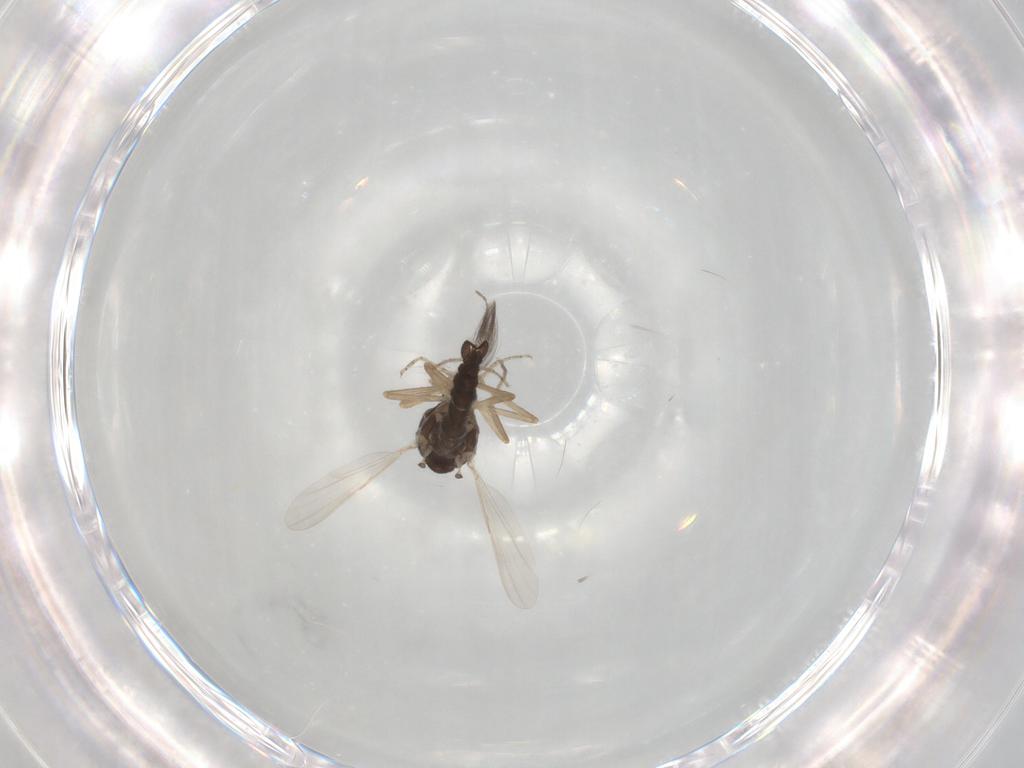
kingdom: Animalia
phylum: Arthropoda
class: Insecta
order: Diptera
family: Ceratopogonidae
